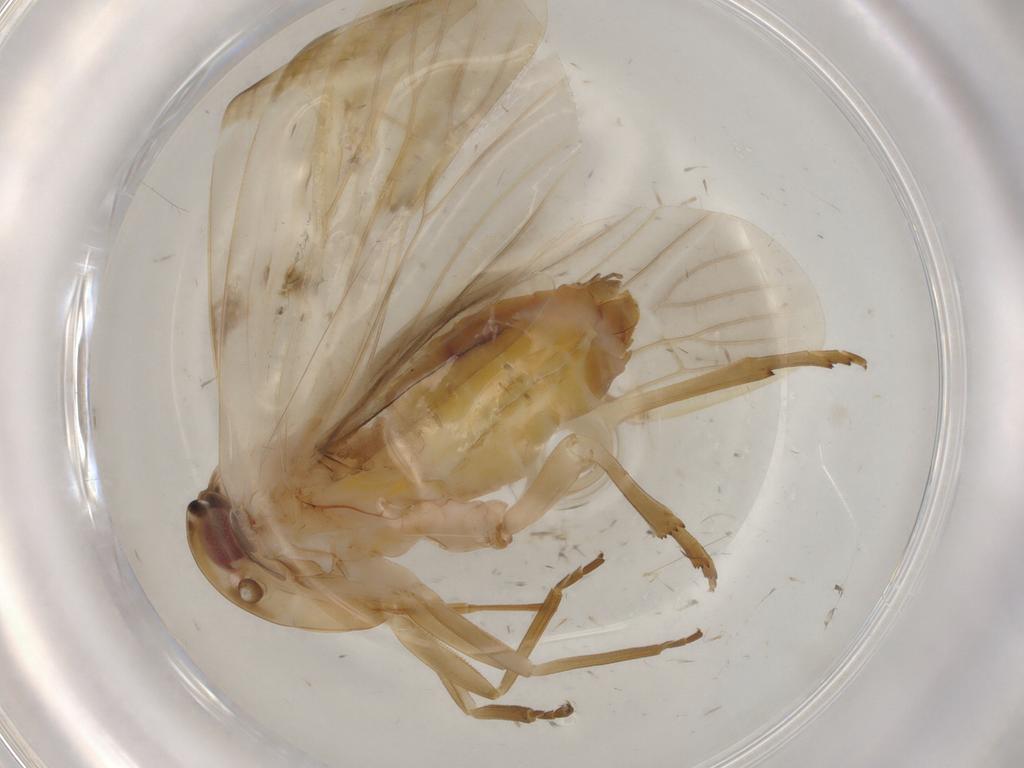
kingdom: Animalia
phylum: Arthropoda
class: Insecta
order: Hemiptera
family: Achilidae
